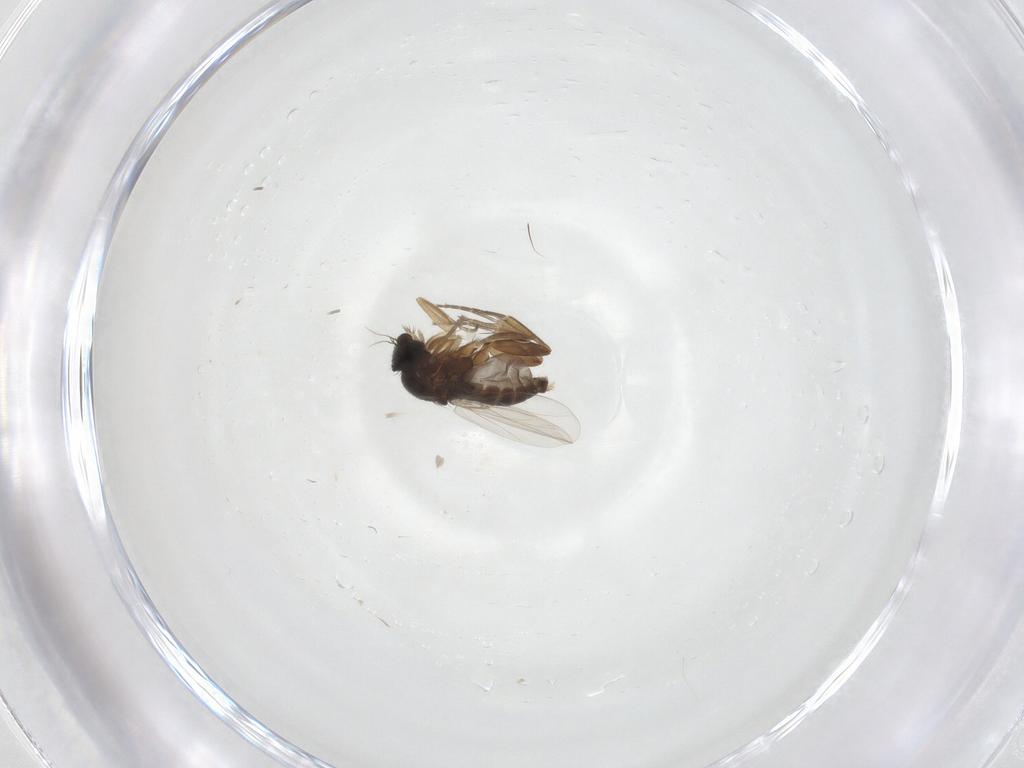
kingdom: Animalia
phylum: Arthropoda
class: Insecta
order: Diptera
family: Phoridae
